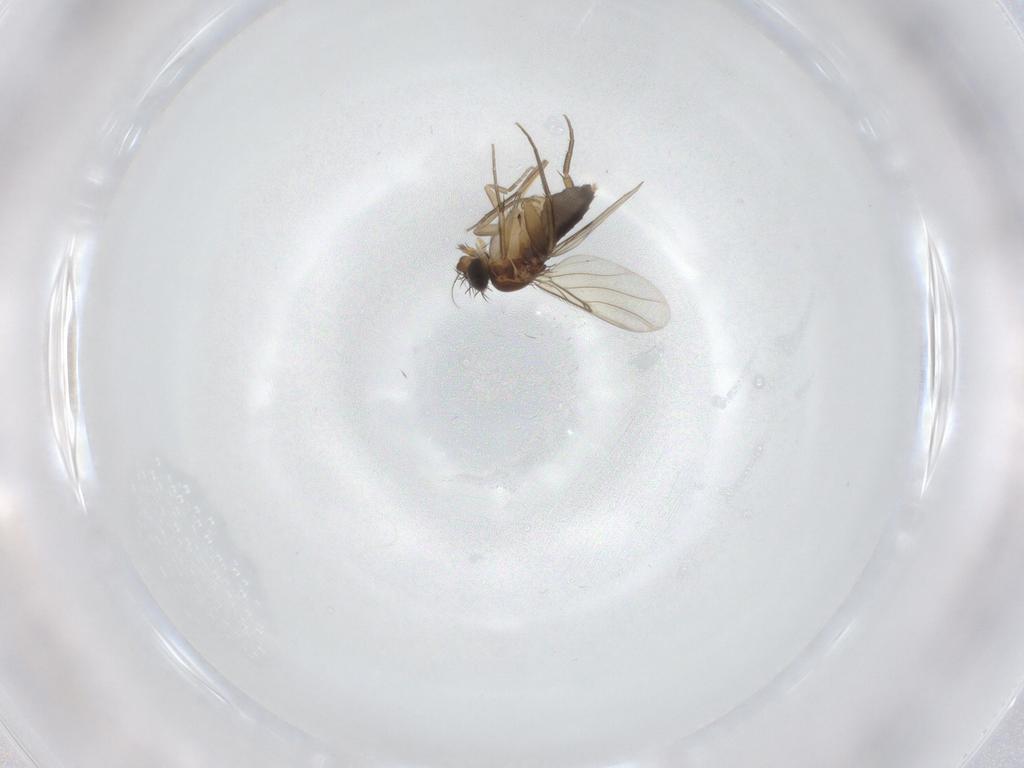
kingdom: Animalia
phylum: Arthropoda
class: Insecta
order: Diptera
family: Phoridae
